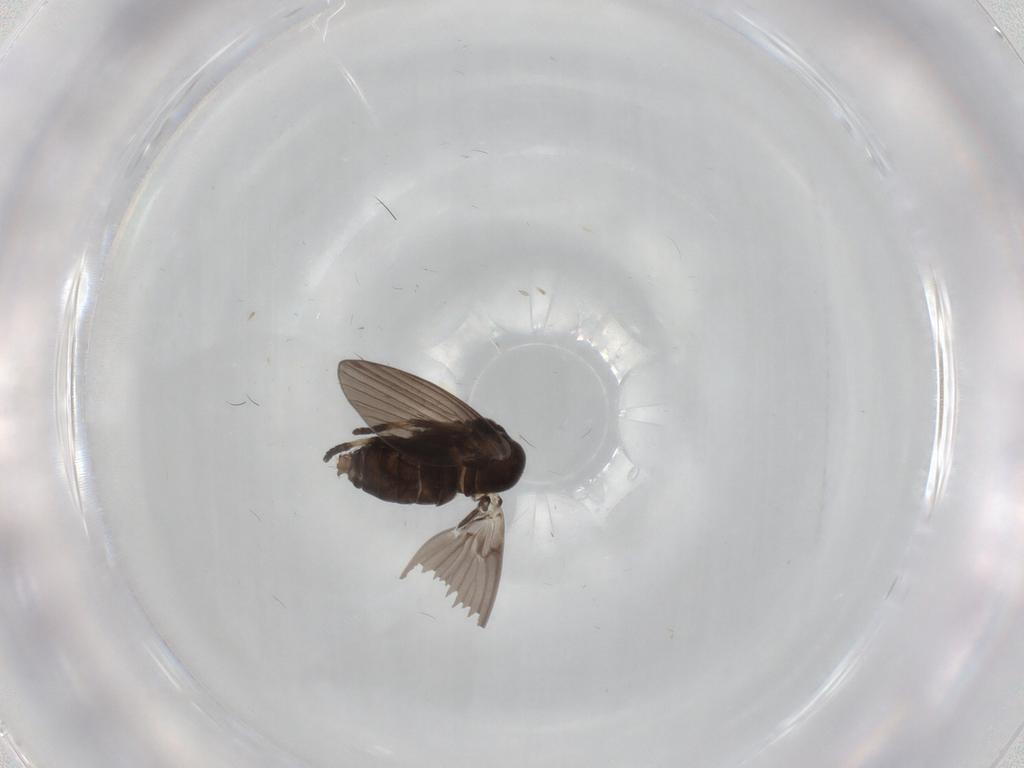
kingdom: Animalia
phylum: Arthropoda
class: Insecta
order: Diptera
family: Psychodidae
